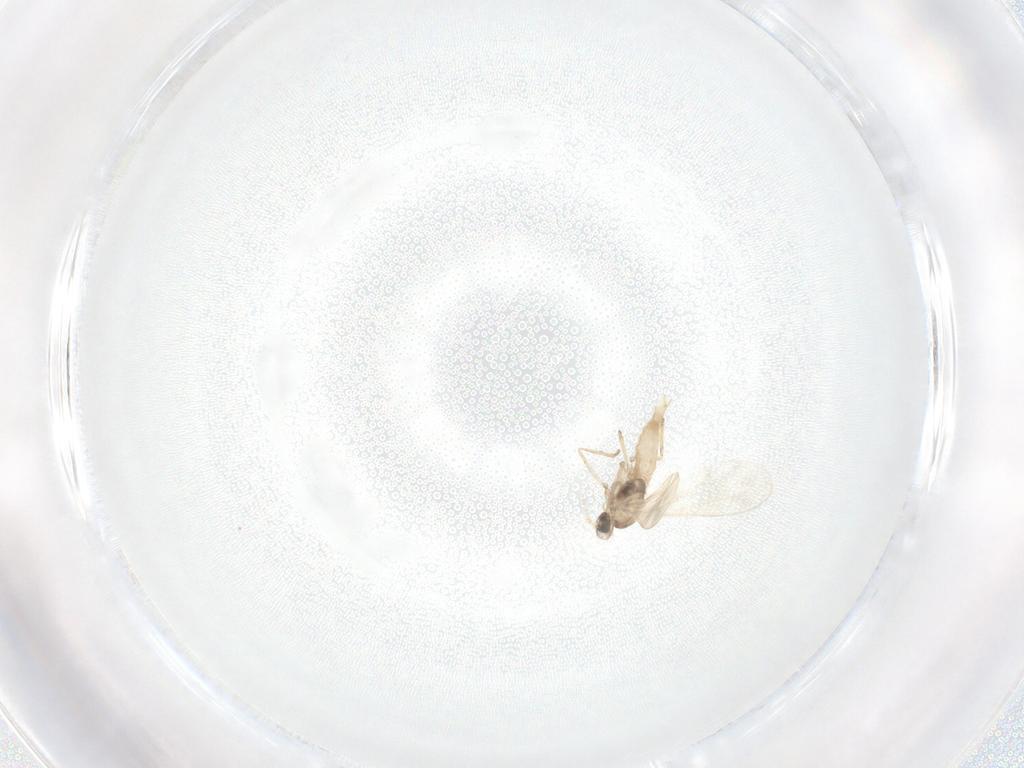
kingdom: Animalia
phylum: Arthropoda
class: Insecta
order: Diptera
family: Cecidomyiidae
